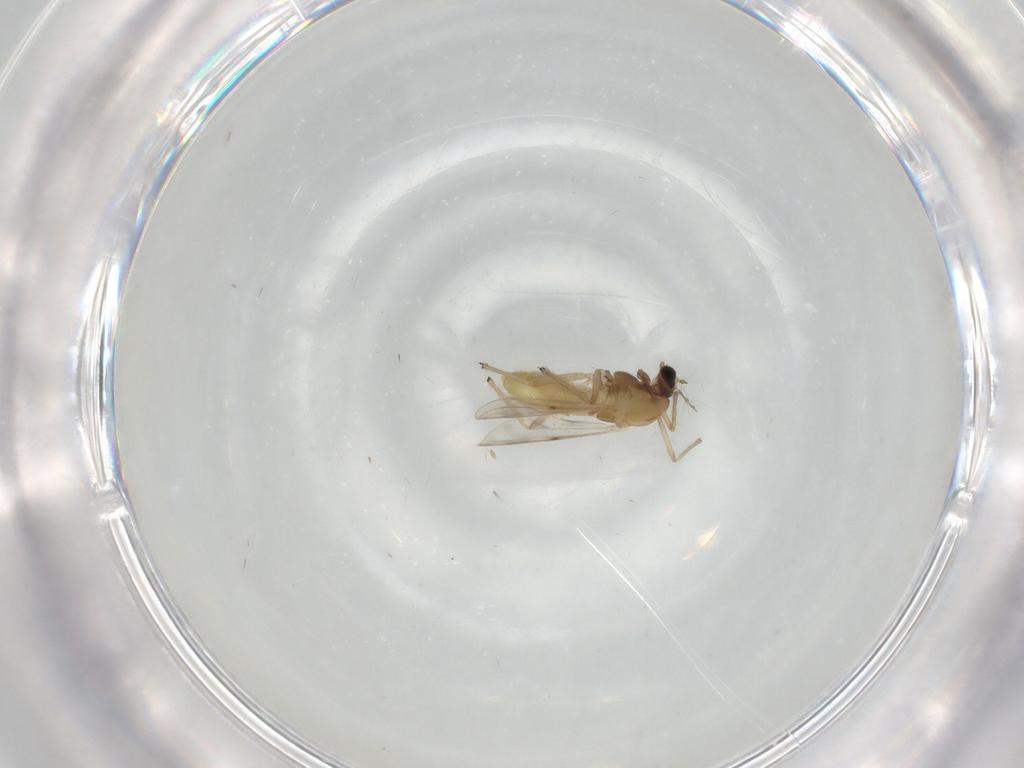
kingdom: Animalia
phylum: Arthropoda
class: Insecta
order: Diptera
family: Chironomidae
